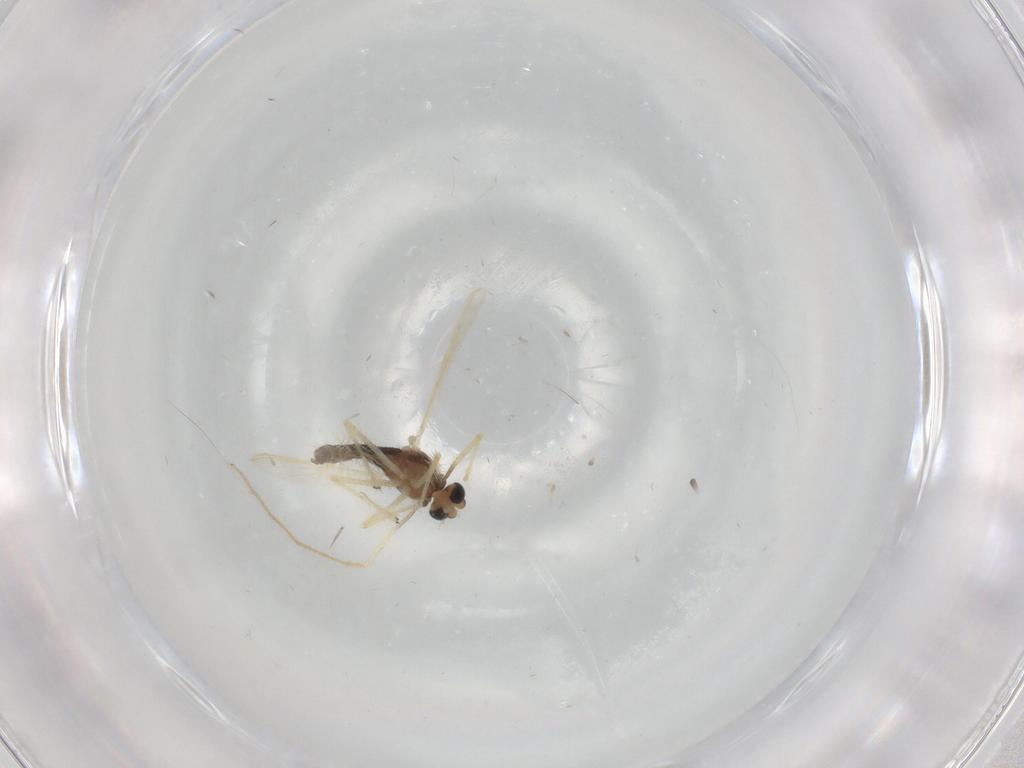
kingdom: Animalia
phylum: Arthropoda
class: Insecta
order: Diptera
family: Chironomidae
